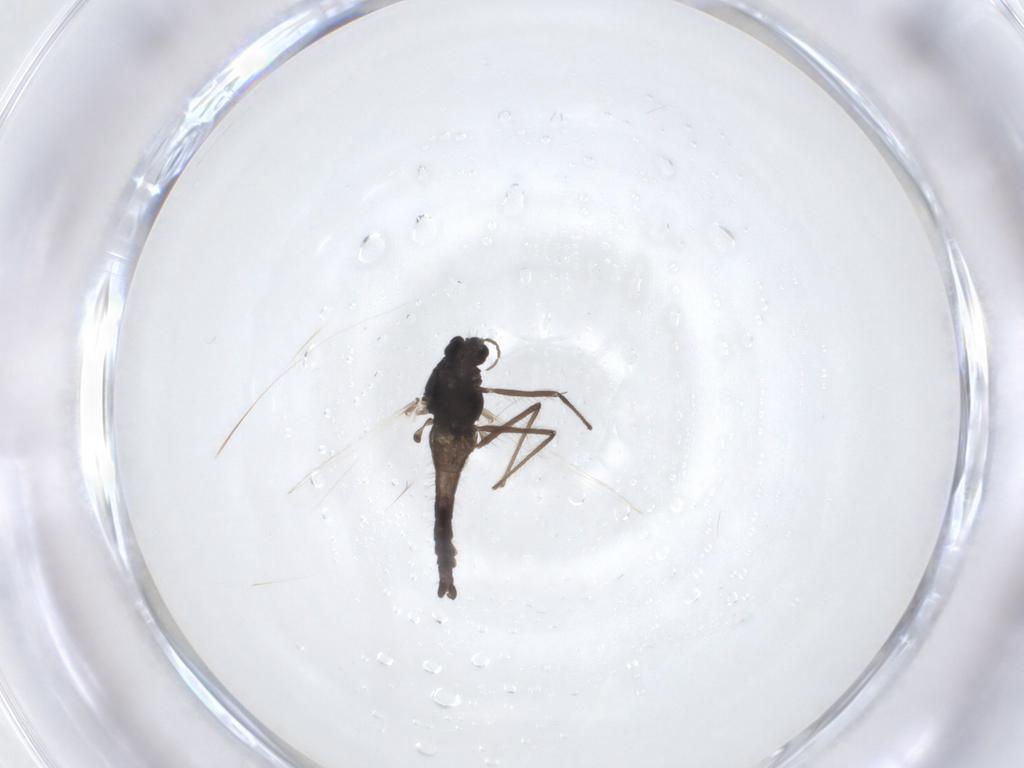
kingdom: Animalia
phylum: Arthropoda
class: Insecta
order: Diptera
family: Chironomidae
